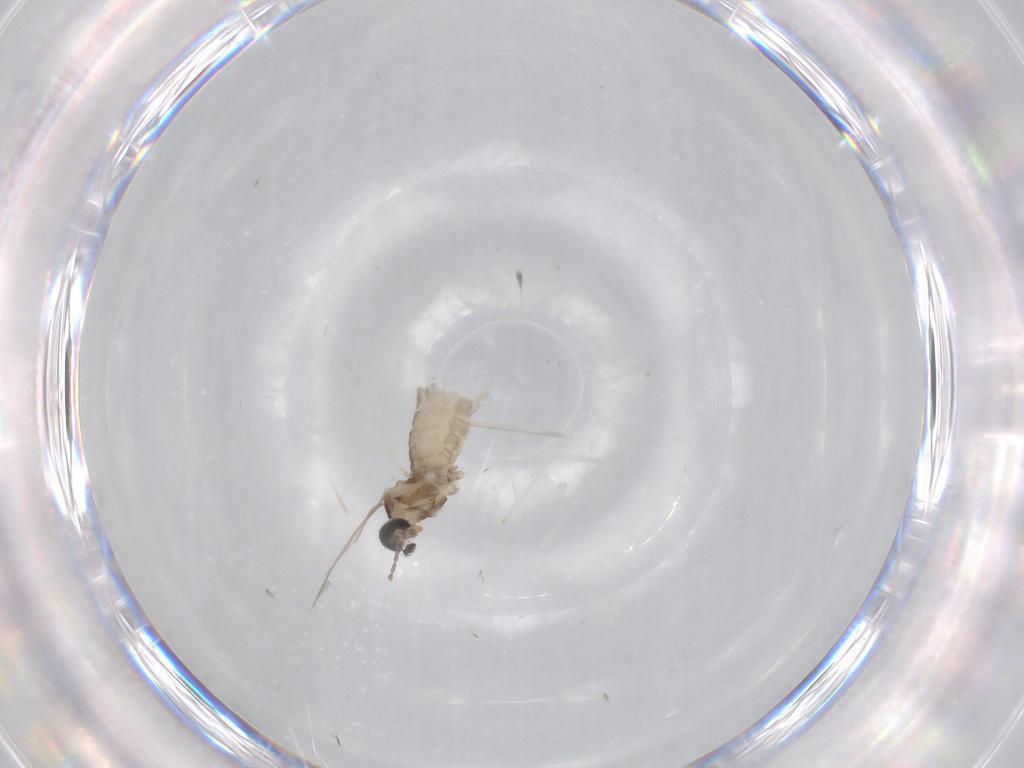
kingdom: Animalia
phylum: Arthropoda
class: Insecta
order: Diptera
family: Cecidomyiidae
